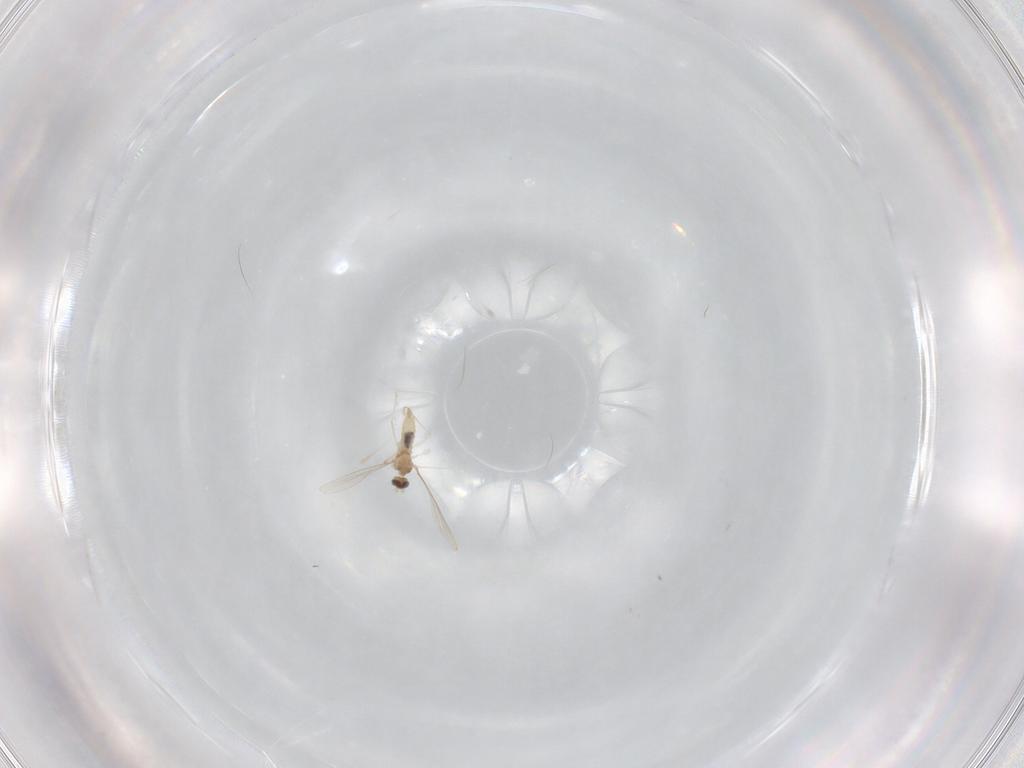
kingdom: Animalia
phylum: Arthropoda
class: Insecta
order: Diptera
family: Cecidomyiidae
